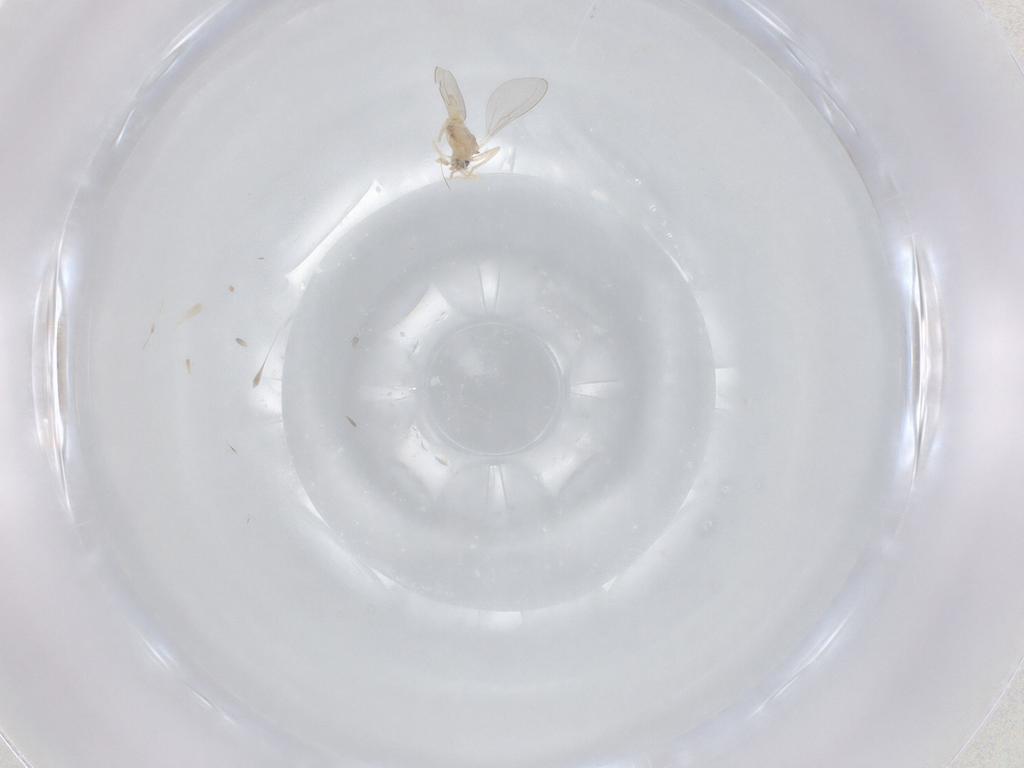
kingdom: Animalia
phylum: Arthropoda
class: Insecta
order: Diptera
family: Cecidomyiidae
